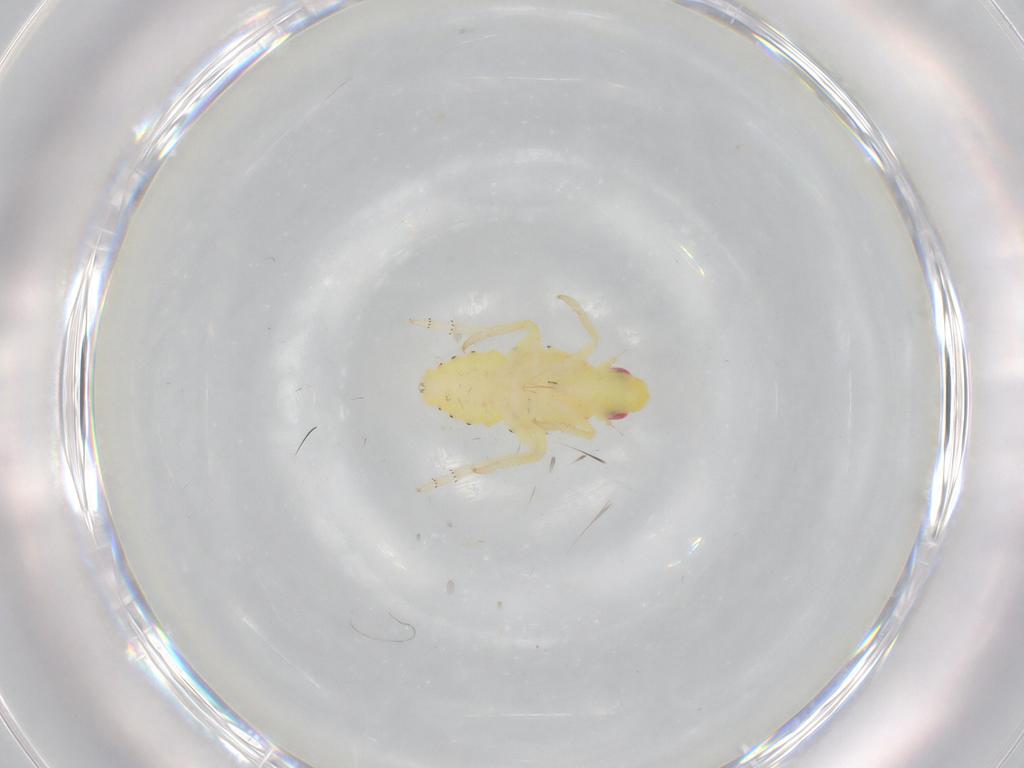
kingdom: Animalia
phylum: Arthropoda
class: Insecta
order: Hemiptera
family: Tropiduchidae
